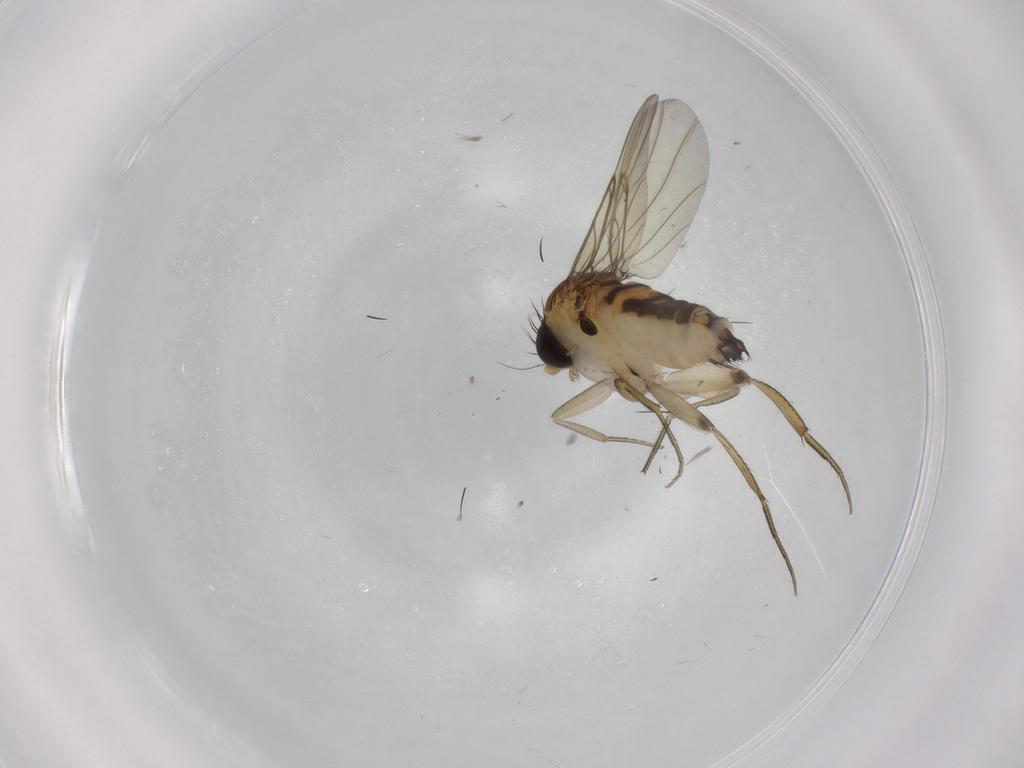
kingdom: Animalia
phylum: Arthropoda
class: Insecta
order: Diptera
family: Phoridae
